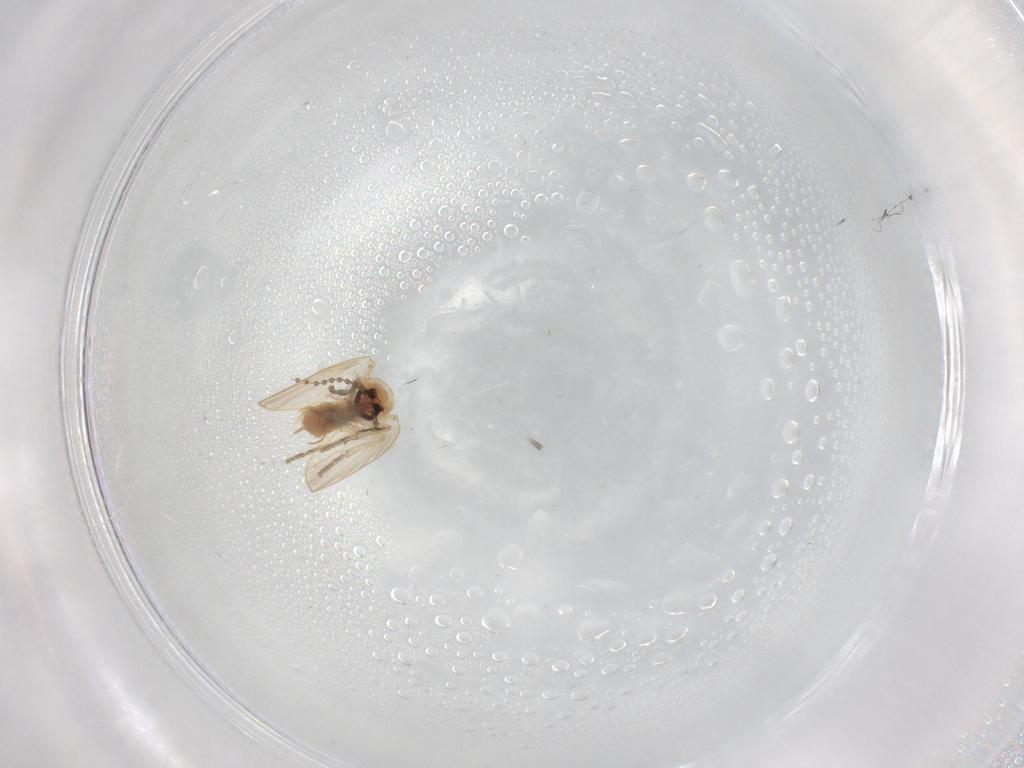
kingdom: Animalia
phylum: Arthropoda
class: Insecta
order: Diptera
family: Psychodidae
